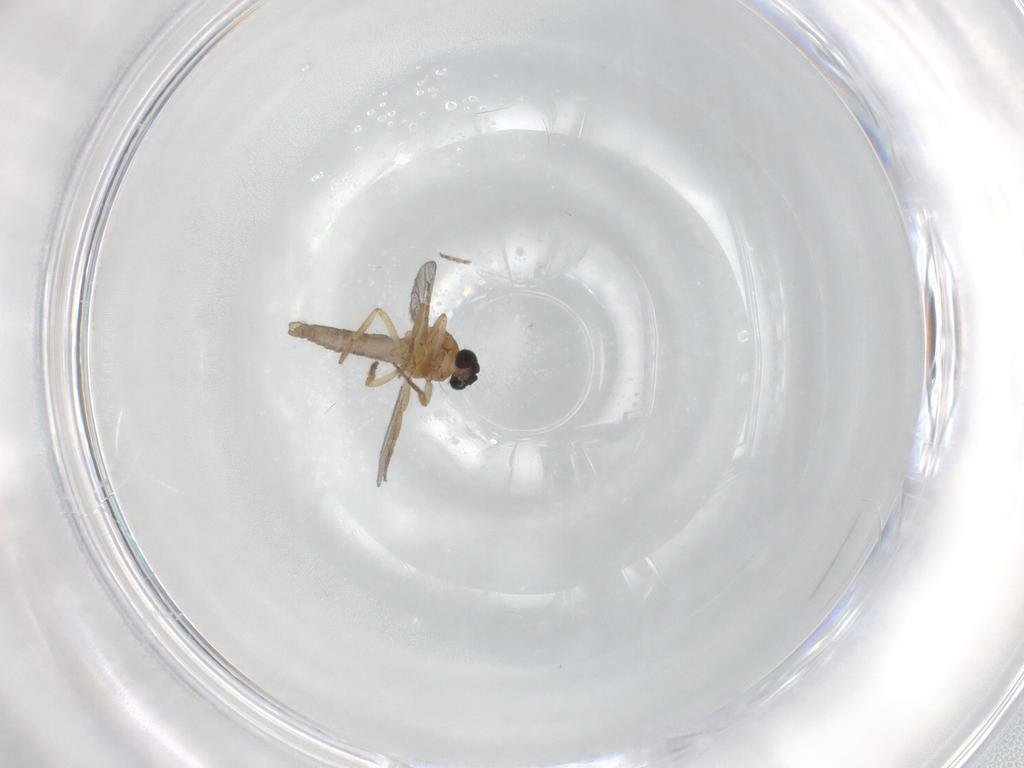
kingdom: Animalia
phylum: Arthropoda
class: Insecta
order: Diptera
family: Ceratopogonidae
